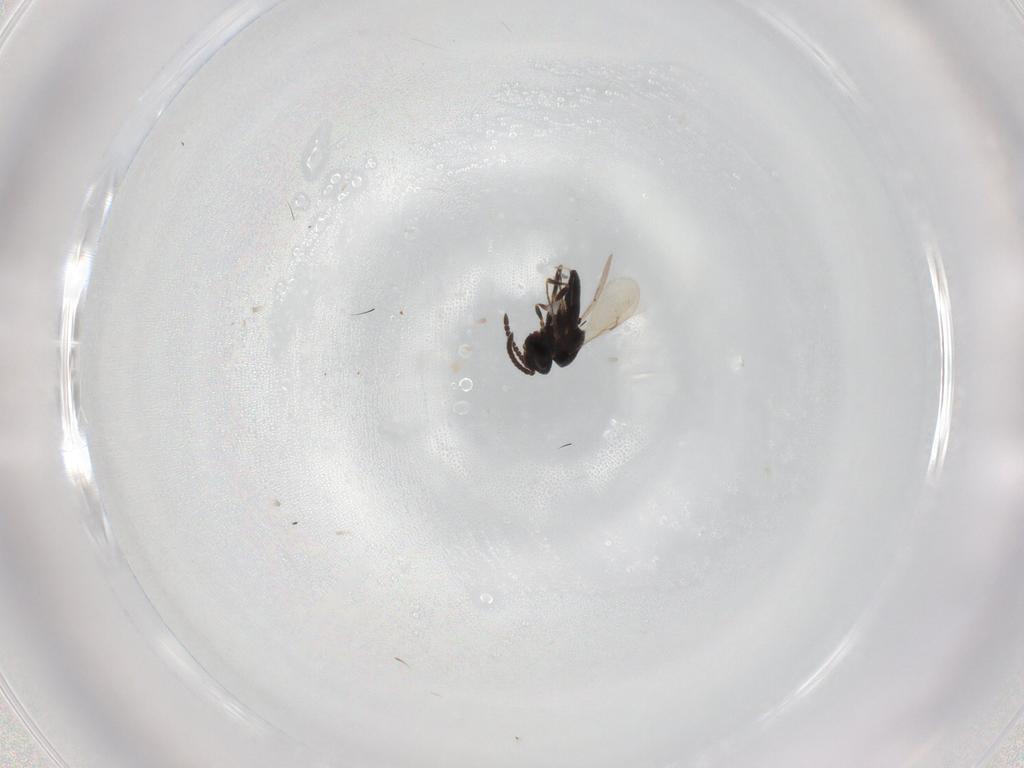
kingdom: Animalia
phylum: Arthropoda
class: Insecta
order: Hymenoptera
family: Scelionidae
